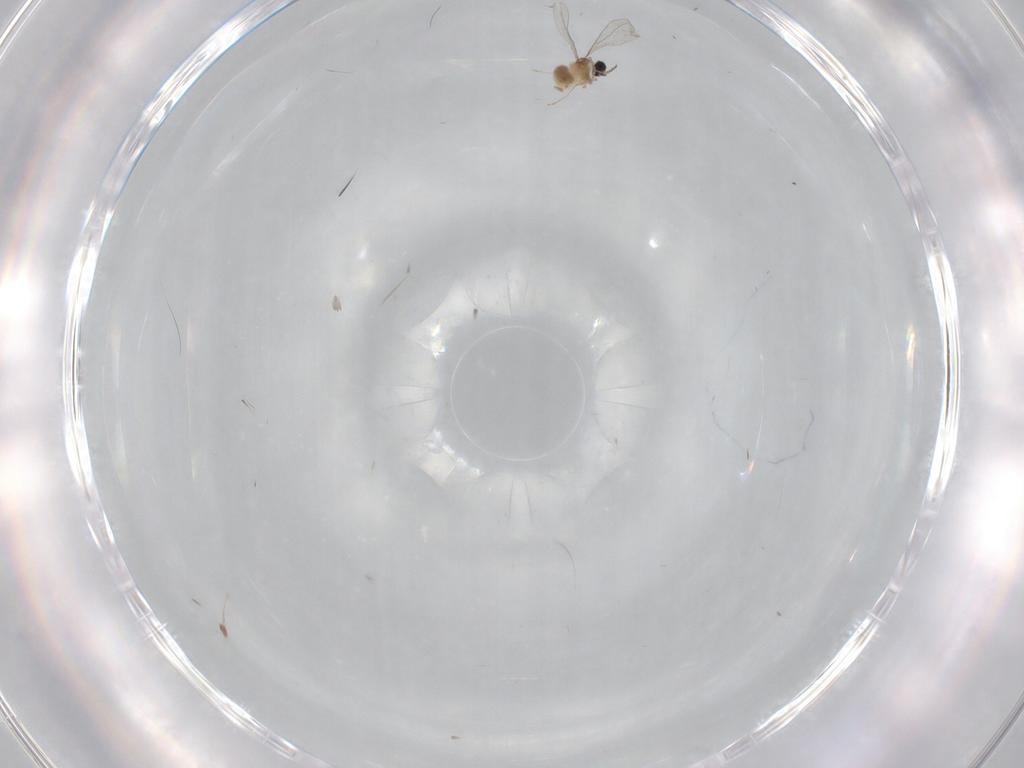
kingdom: Animalia
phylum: Arthropoda
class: Insecta
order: Diptera
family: Cecidomyiidae
